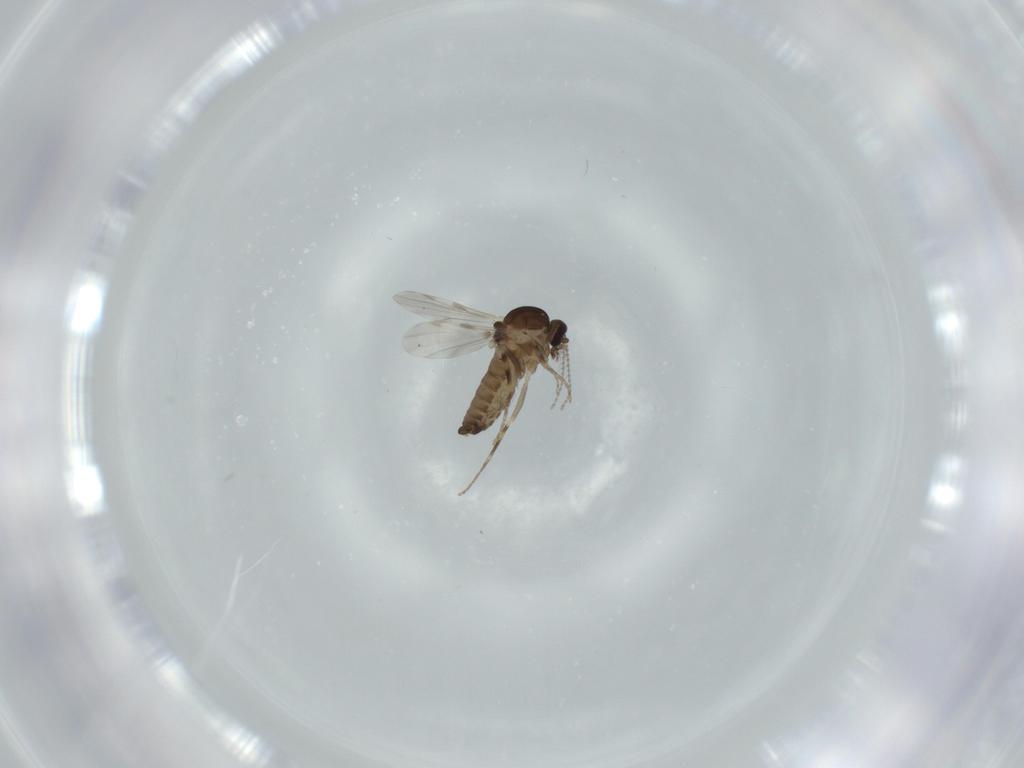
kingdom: Animalia
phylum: Arthropoda
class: Insecta
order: Diptera
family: Ceratopogonidae
